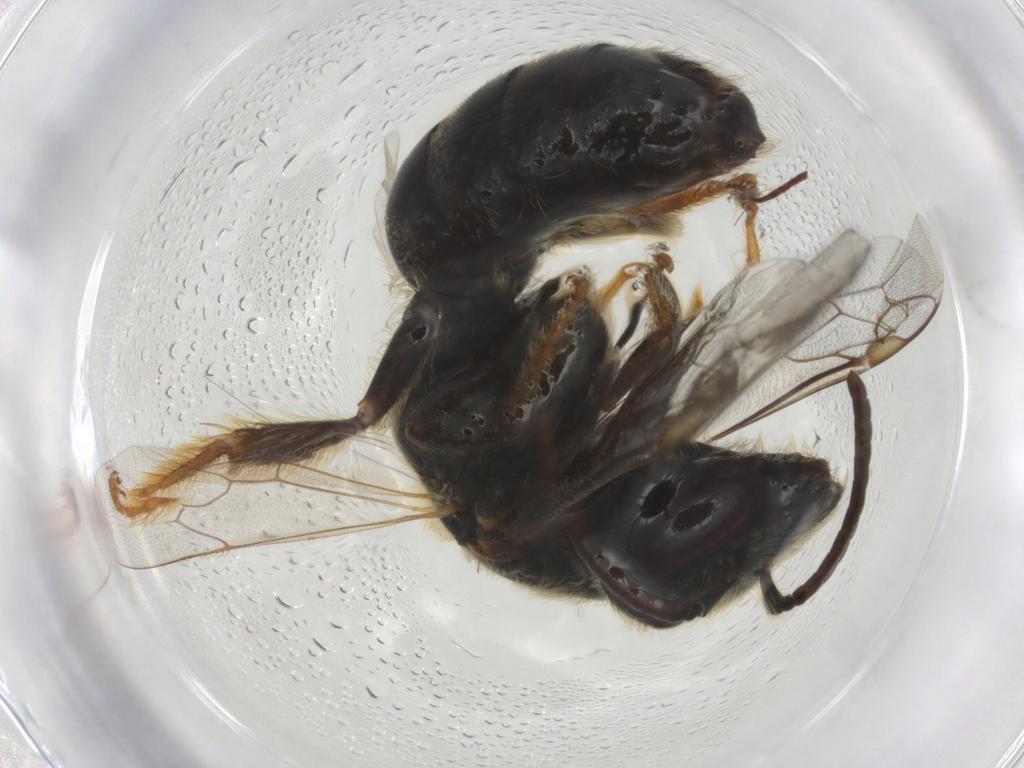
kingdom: Animalia
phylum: Arthropoda
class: Insecta
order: Hymenoptera
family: Halictidae
